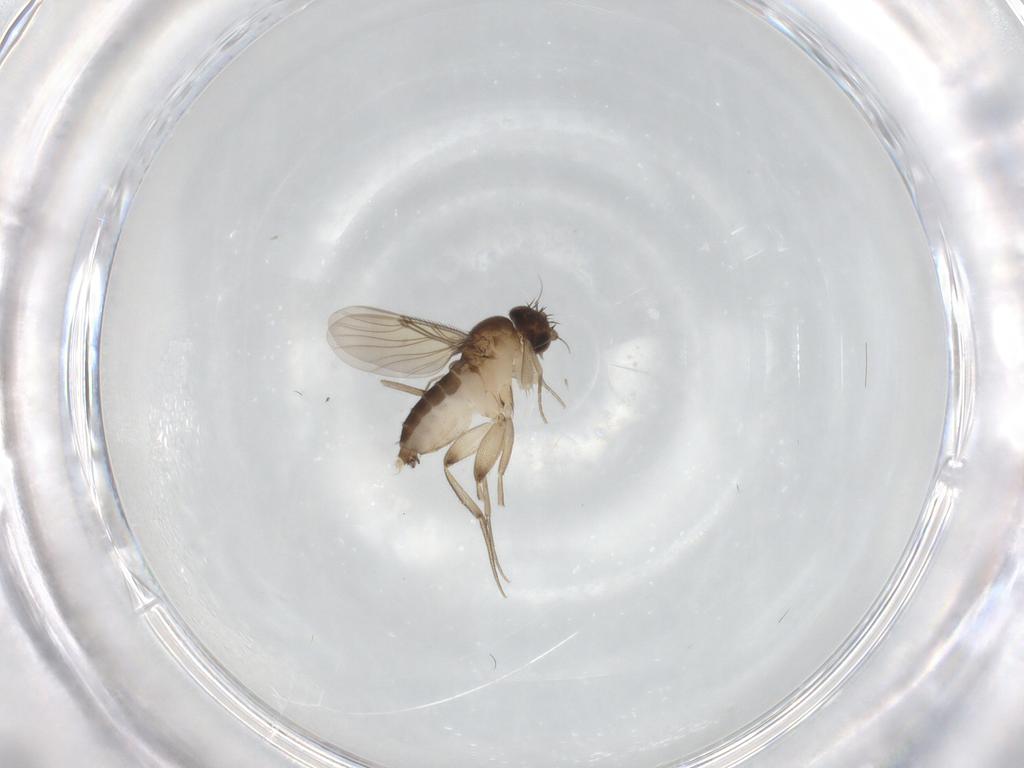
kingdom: Animalia
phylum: Arthropoda
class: Insecta
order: Diptera
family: Phoridae
